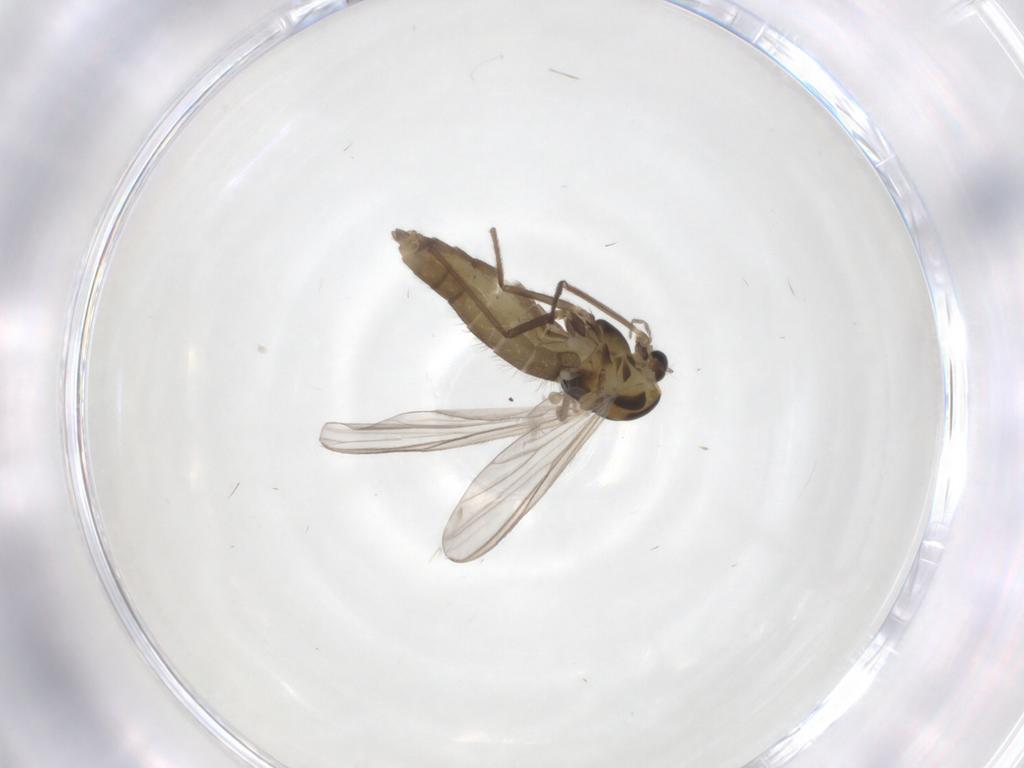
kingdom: Animalia
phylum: Arthropoda
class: Insecta
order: Diptera
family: Chironomidae
